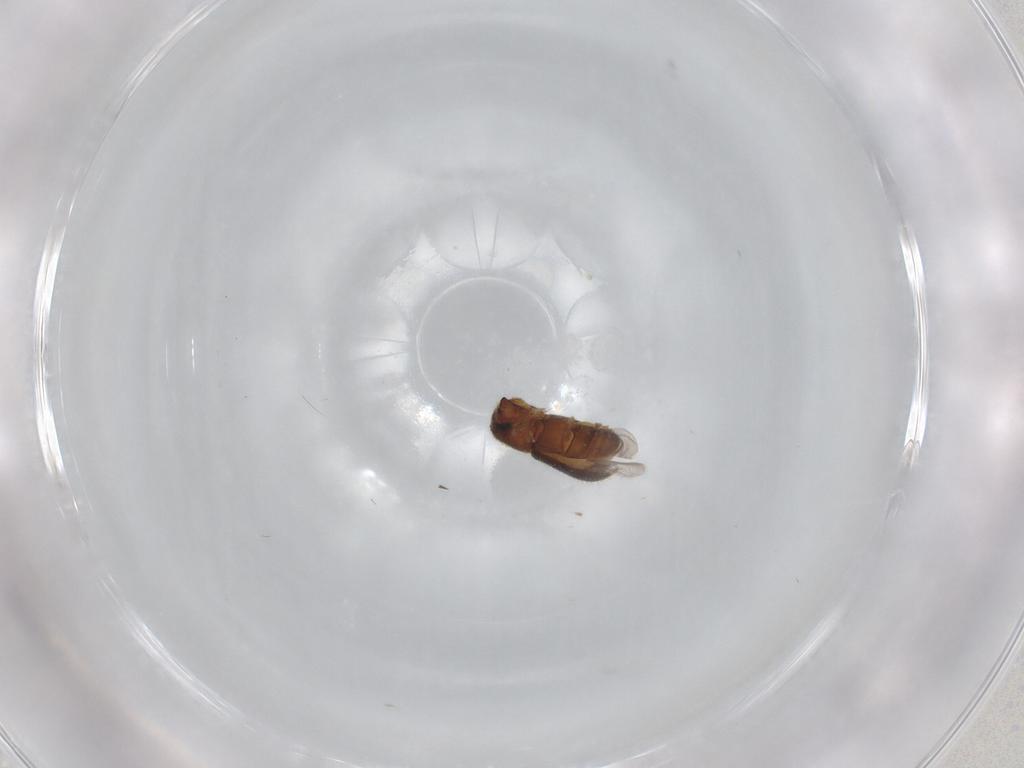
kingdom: Animalia
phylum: Arthropoda
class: Insecta
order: Coleoptera
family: Curculionidae
